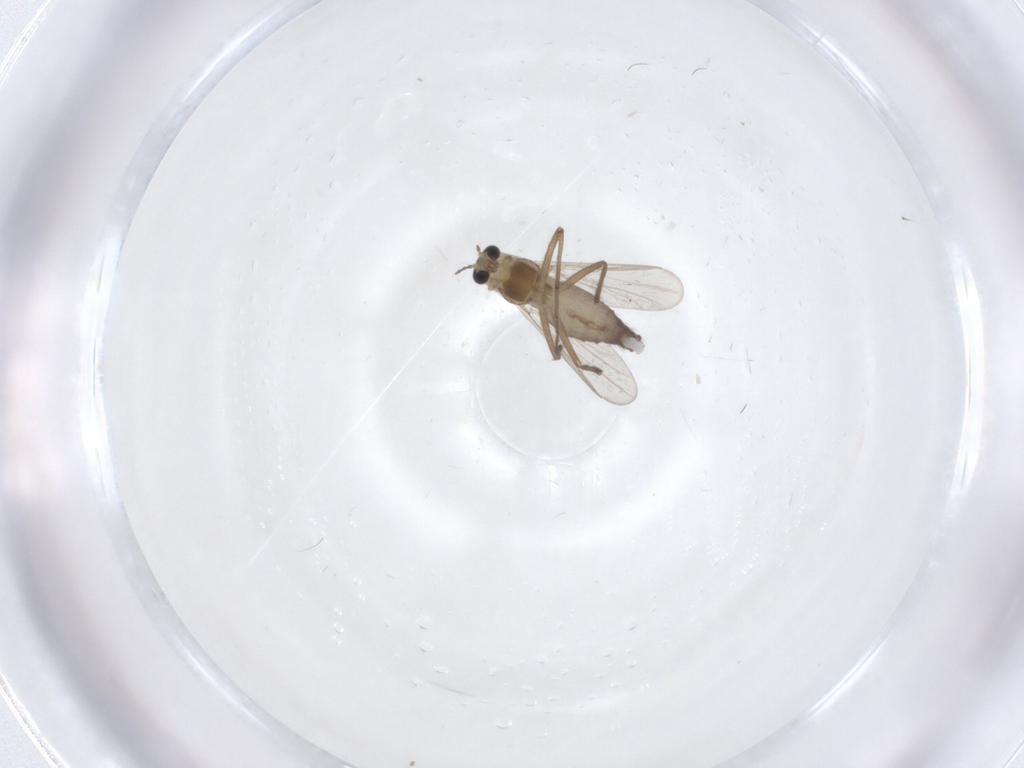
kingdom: Animalia
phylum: Arthropoda
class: Insecta
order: Diptera
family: Chironomidae
